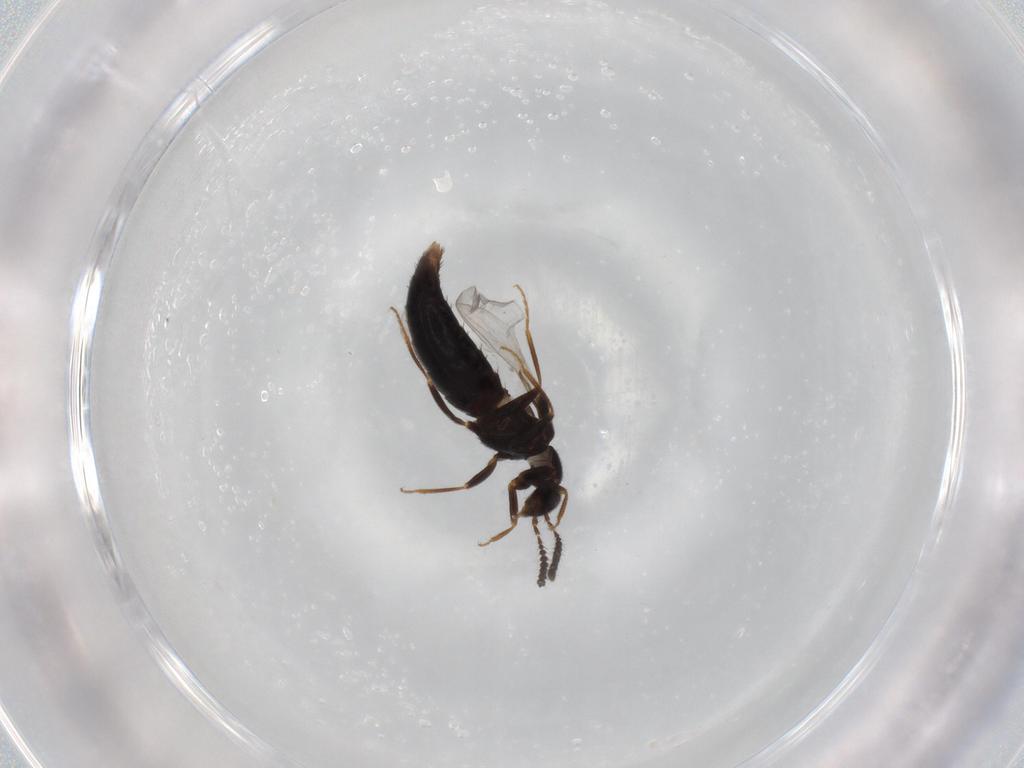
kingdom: Animalia
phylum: Arthropoda
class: Insecta
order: Coleoptera
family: Staphylinidae
